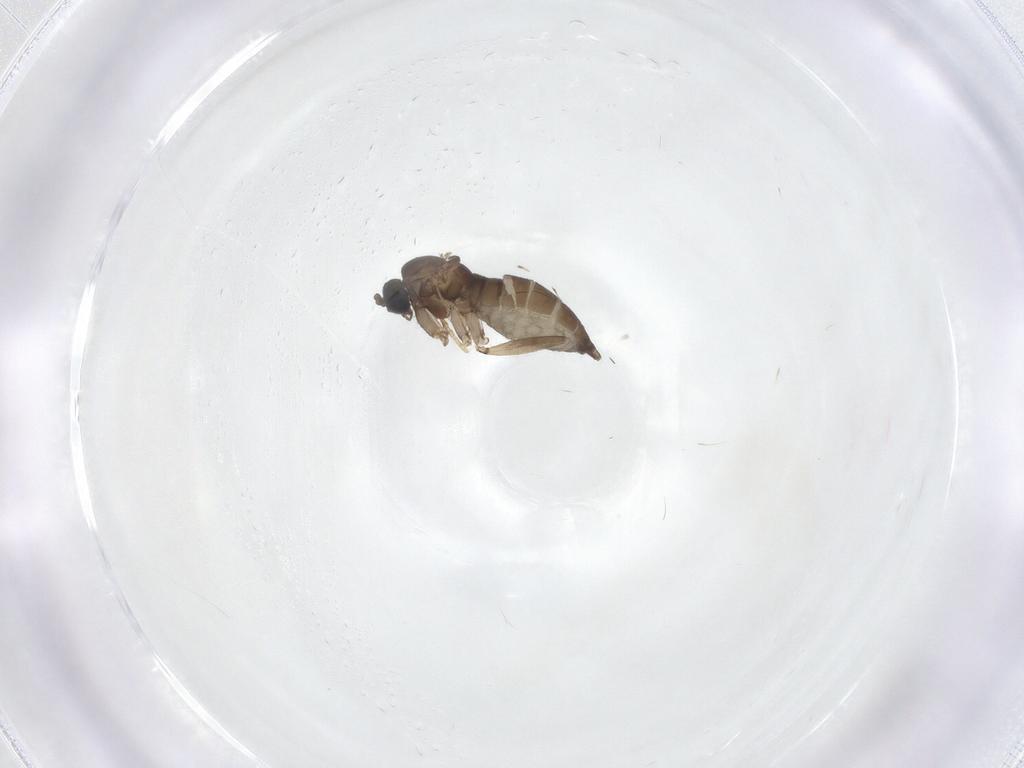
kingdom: Animalia
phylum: Arthropoda
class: Insecta
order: Diptera
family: Sciaridae
